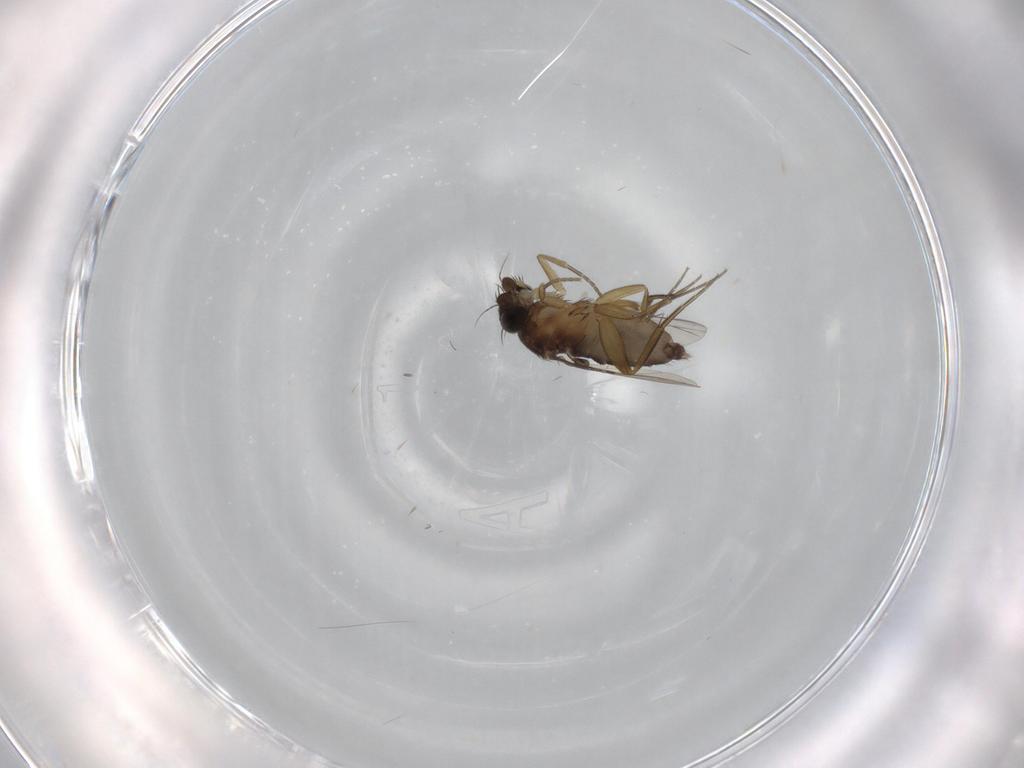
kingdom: Animalia
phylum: Arthropoda
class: Insecta
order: Diptera
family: Phoridae
